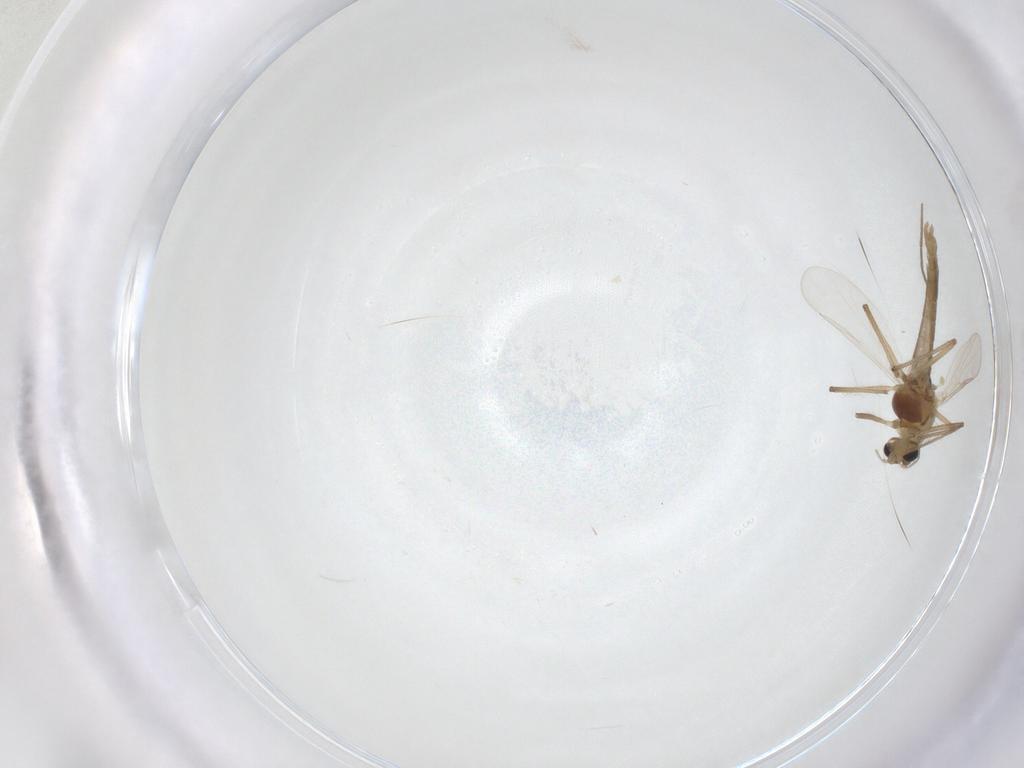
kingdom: Animalia
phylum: Arthropoda
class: Insecta
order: Diptera
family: Chironomidae
